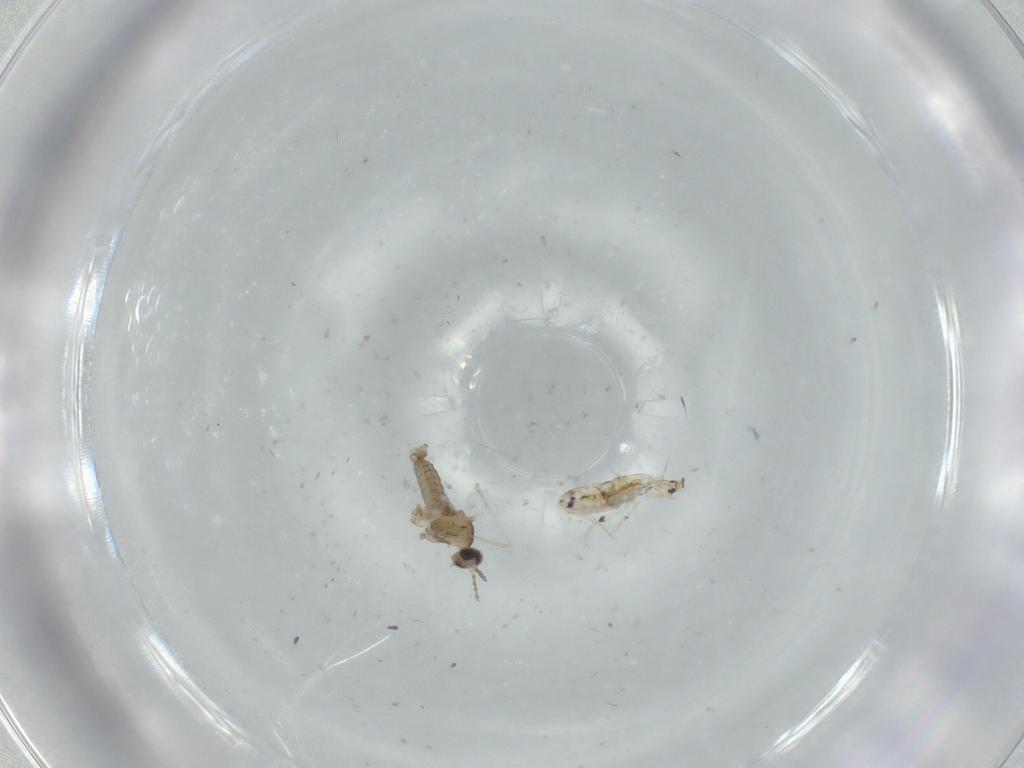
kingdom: Animalia
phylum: Arthropoda
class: Insecta
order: Diptera
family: Cecidomyiidae
